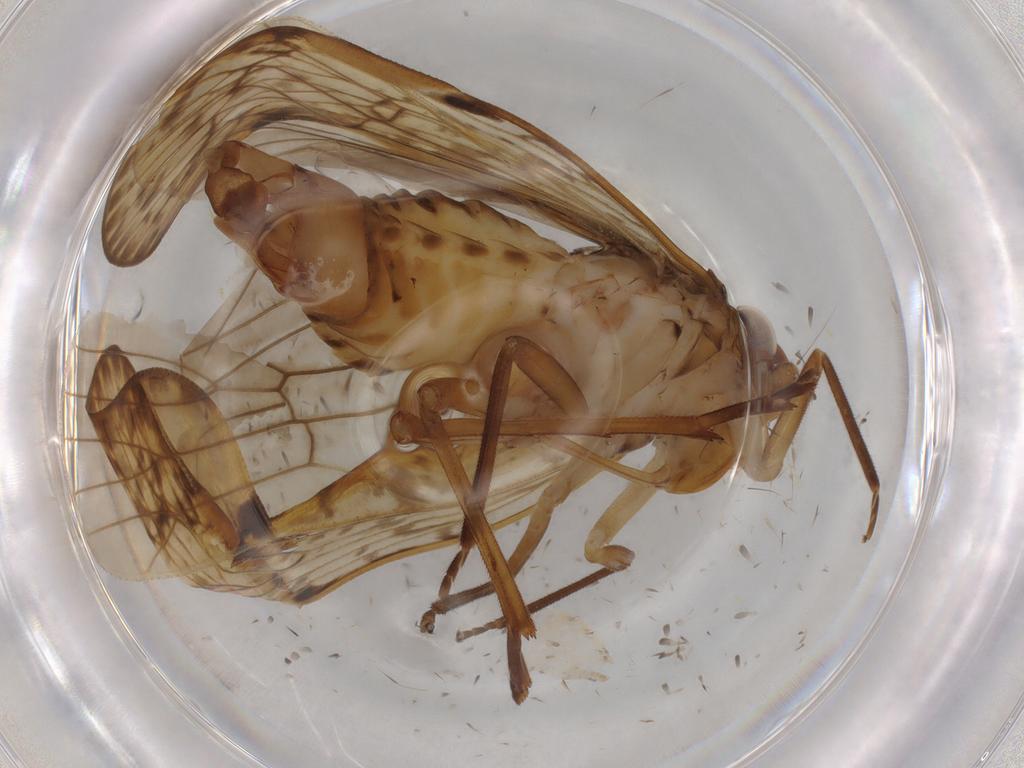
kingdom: Animalia
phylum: Arthropoda
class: Insecta
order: Hemiptera
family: Cixiidae
